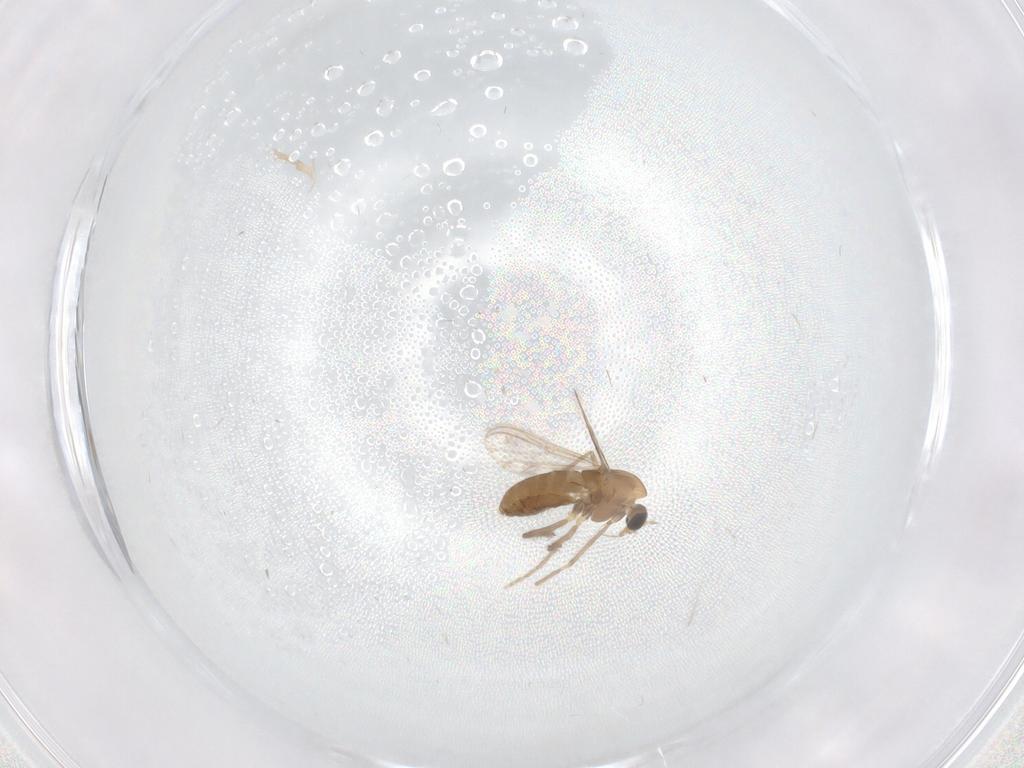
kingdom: Animalia
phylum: Arthropoda
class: Insecta
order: Diptera
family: Chironomidae
